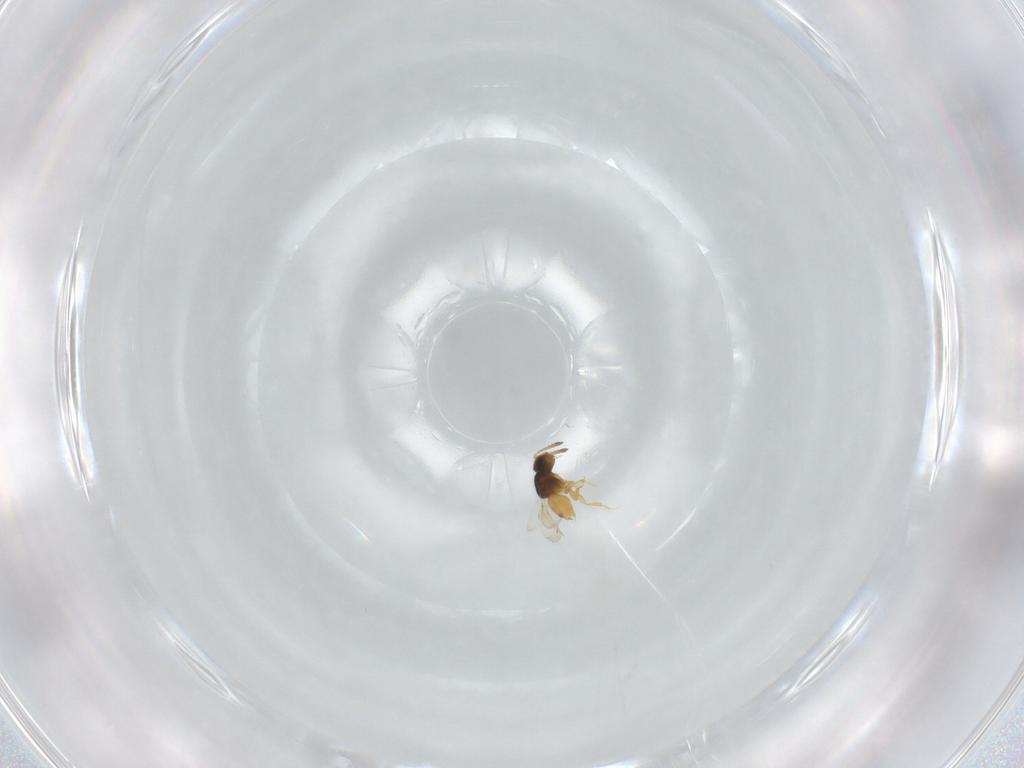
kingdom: Animalia
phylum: Arthropoda
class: Insecta
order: Hymenoptera
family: Ceraphronidae
